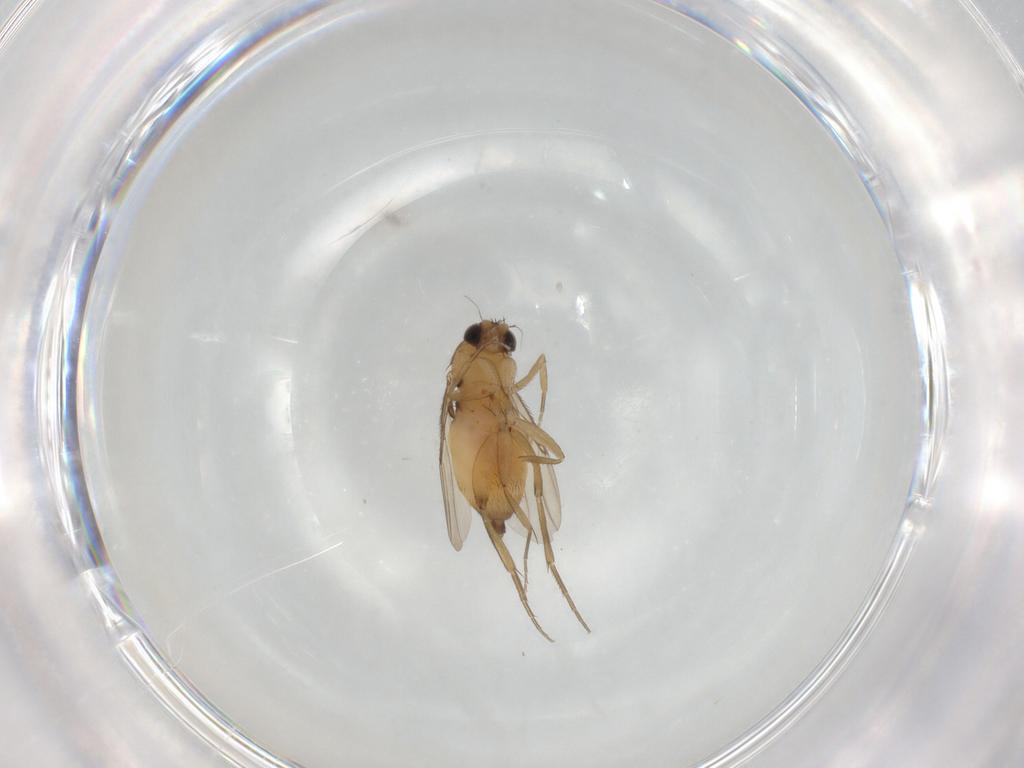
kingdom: Animalia
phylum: Arthropoda
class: Insecta
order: Diptera
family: Phoridae
